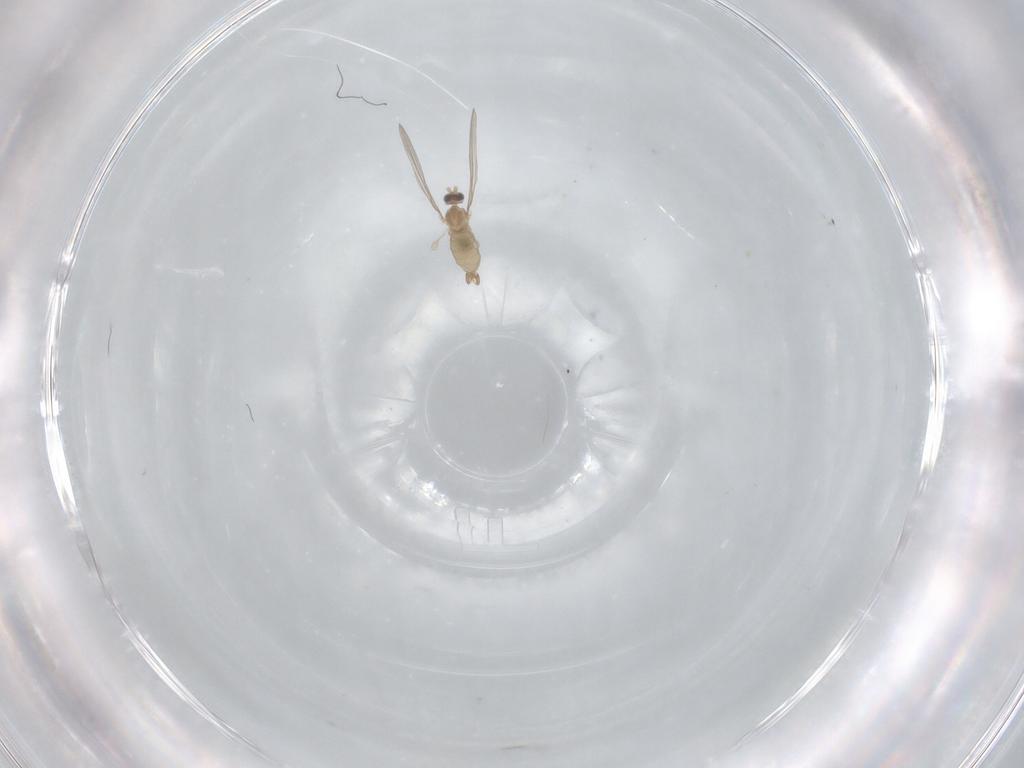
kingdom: Animalia
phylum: Arthropoda
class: Insecta
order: Diptera
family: Cecidomyiidae
